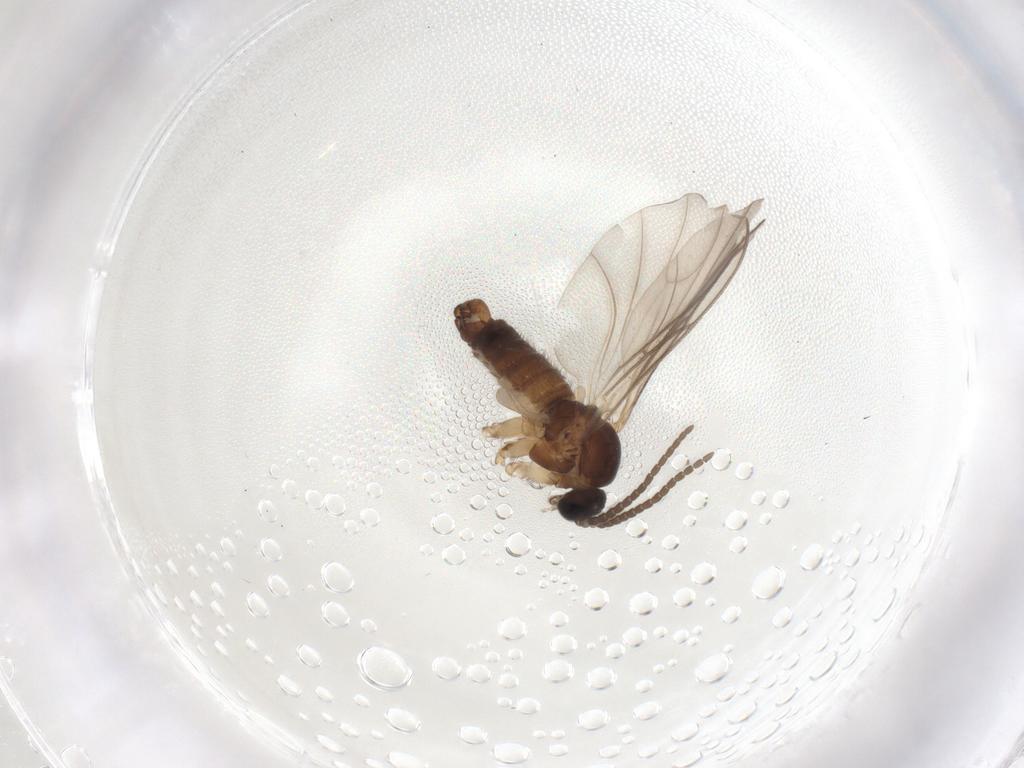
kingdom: Animalia
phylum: Arthropoda
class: Insecta
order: Diptera
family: Sciaridae
